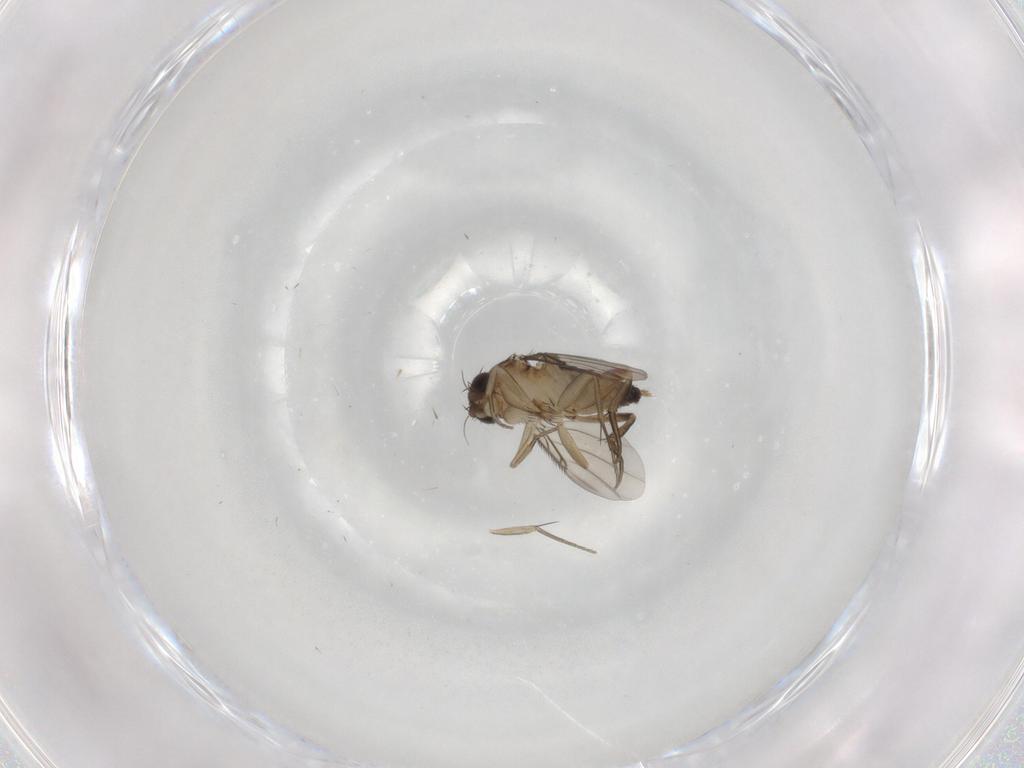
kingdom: Animalia
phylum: Arthropoda
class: Insecta
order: Diptera
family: Phoridae
